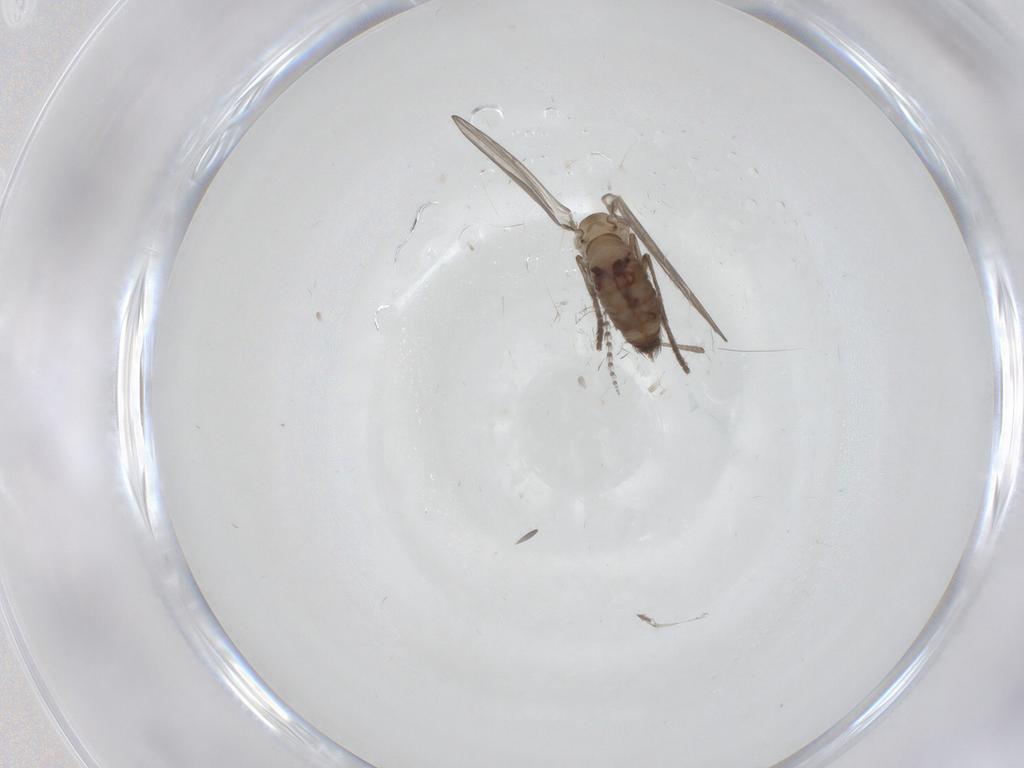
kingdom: Animalia
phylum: Arthropoda
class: Insecta
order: Diptera
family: Psychodidae
